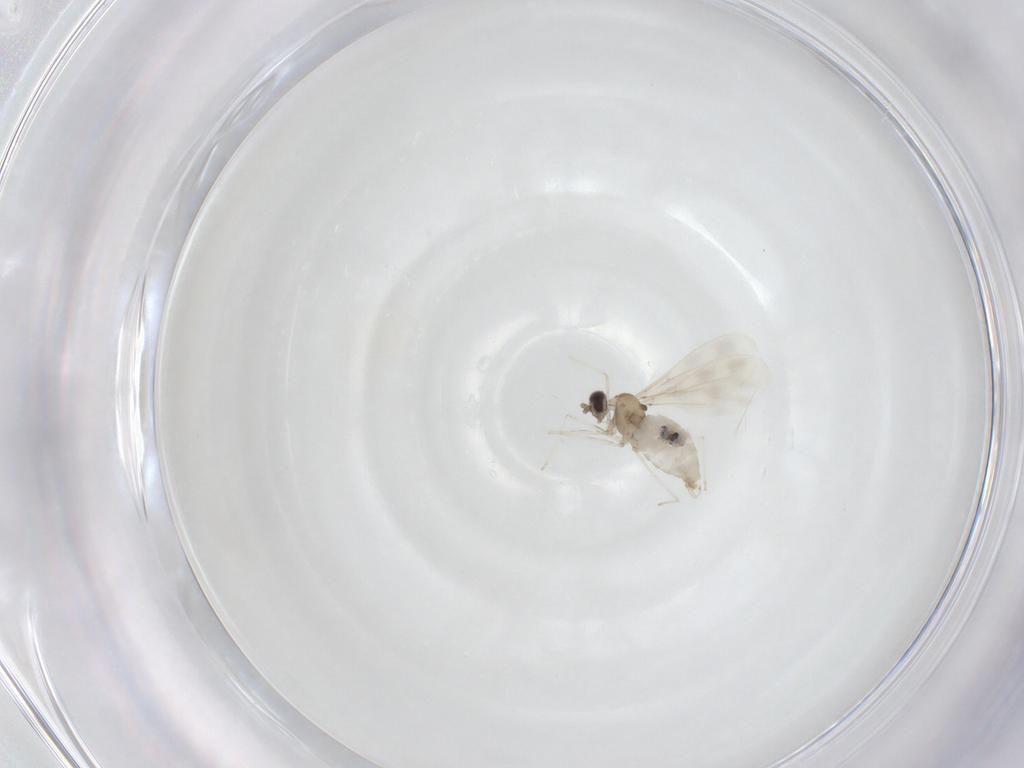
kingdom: Animalia
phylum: Arthropoda
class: Insecta
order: Diptera
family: Cecidomyiidae
